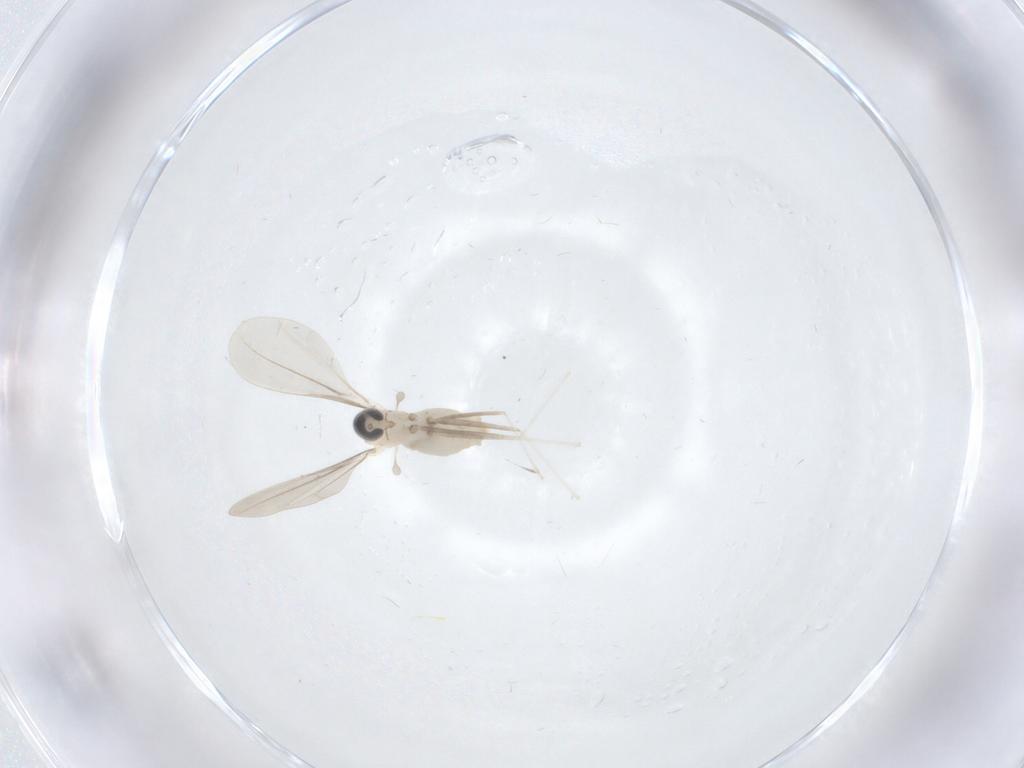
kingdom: Animalia
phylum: Arthropoda
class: Insecta
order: Diptera
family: Cecidomyiidae
